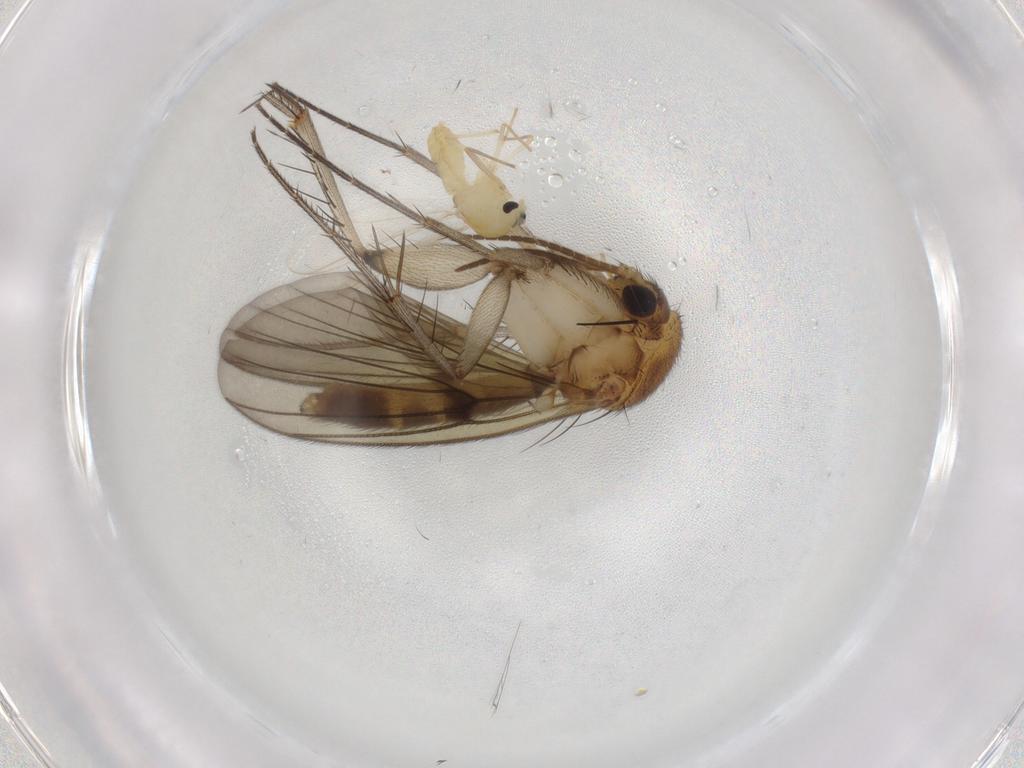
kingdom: Animalia
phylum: Arthropoda
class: Insecta
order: Diptera
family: Chironomidae
